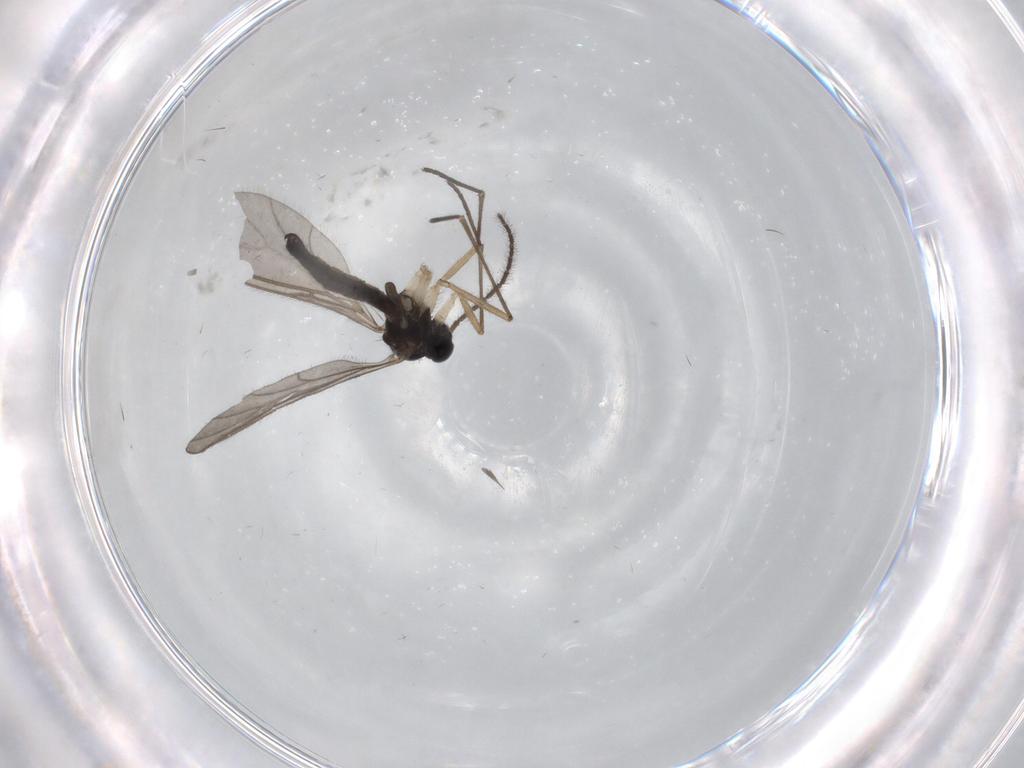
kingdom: Animalia
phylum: Arthropoda
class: Insecta
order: Diptera
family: Sciaridae
